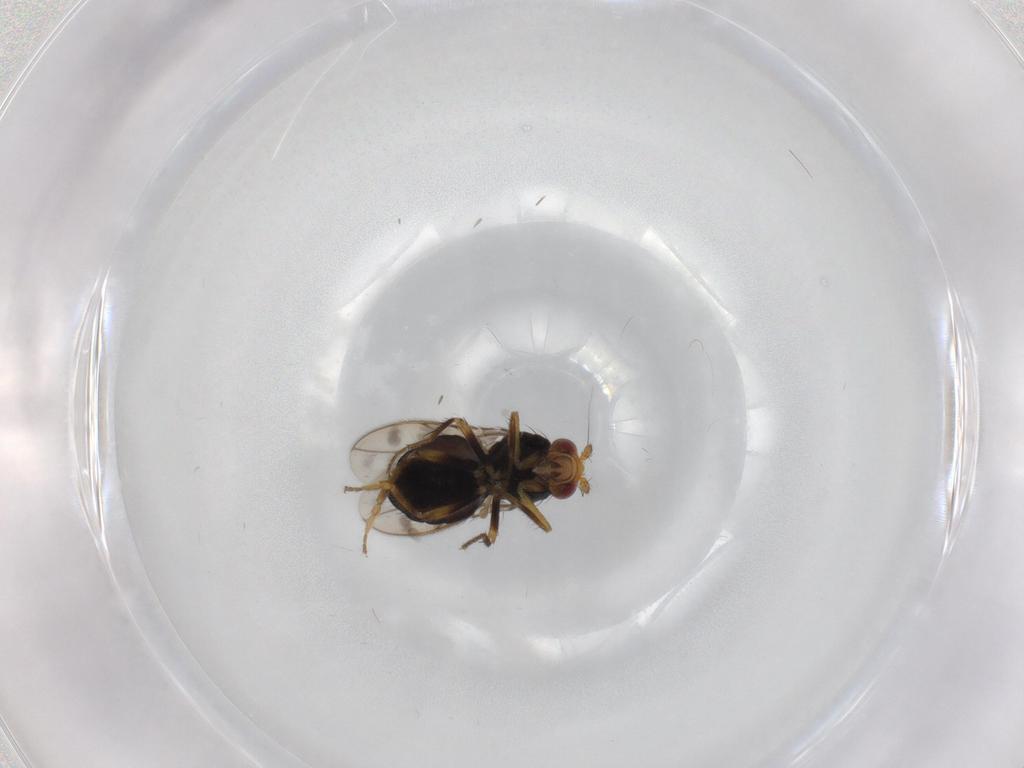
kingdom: Animalia
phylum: Arthropoda
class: Insecta
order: Diptera
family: Sphaeroceridae
